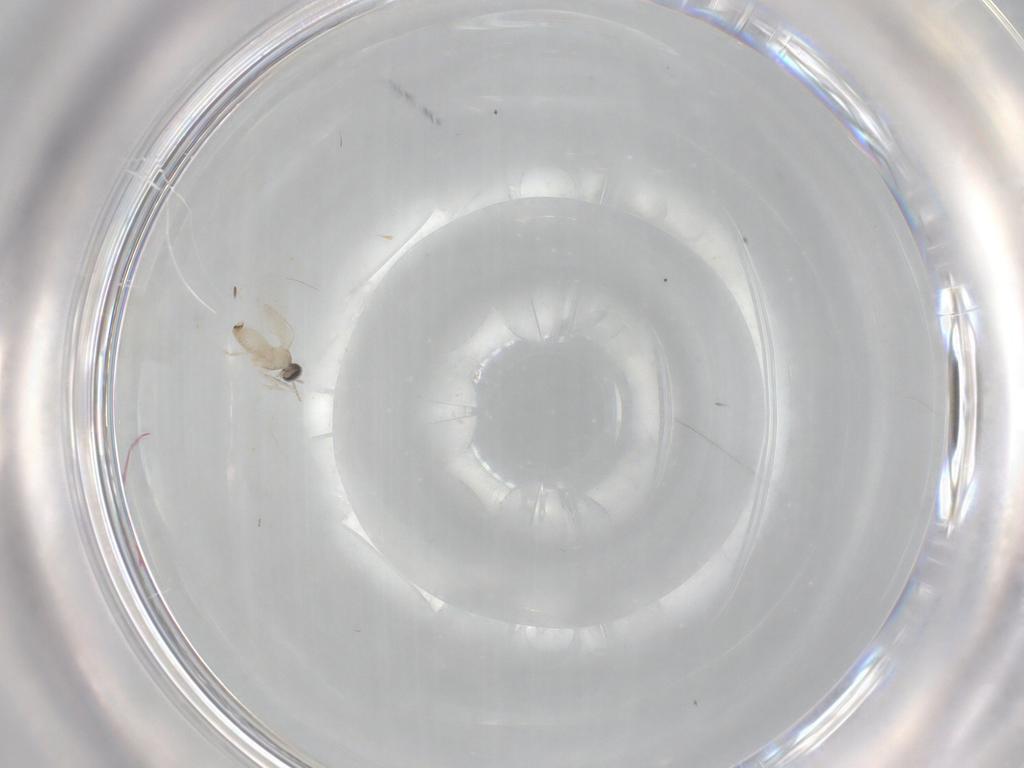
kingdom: Animalia
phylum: Arthropoda
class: Insecta
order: Diptera
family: Cecidomyiidae
